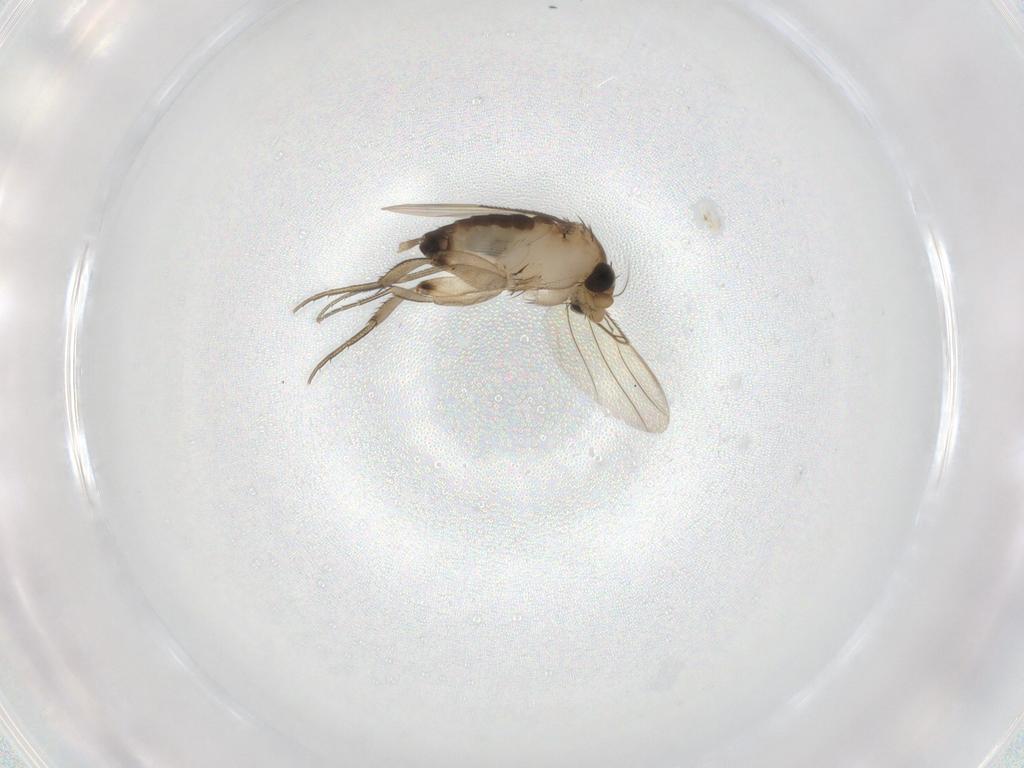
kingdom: Animalia
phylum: Arthropoda
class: Insecta
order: Diptera
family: Phoridae
